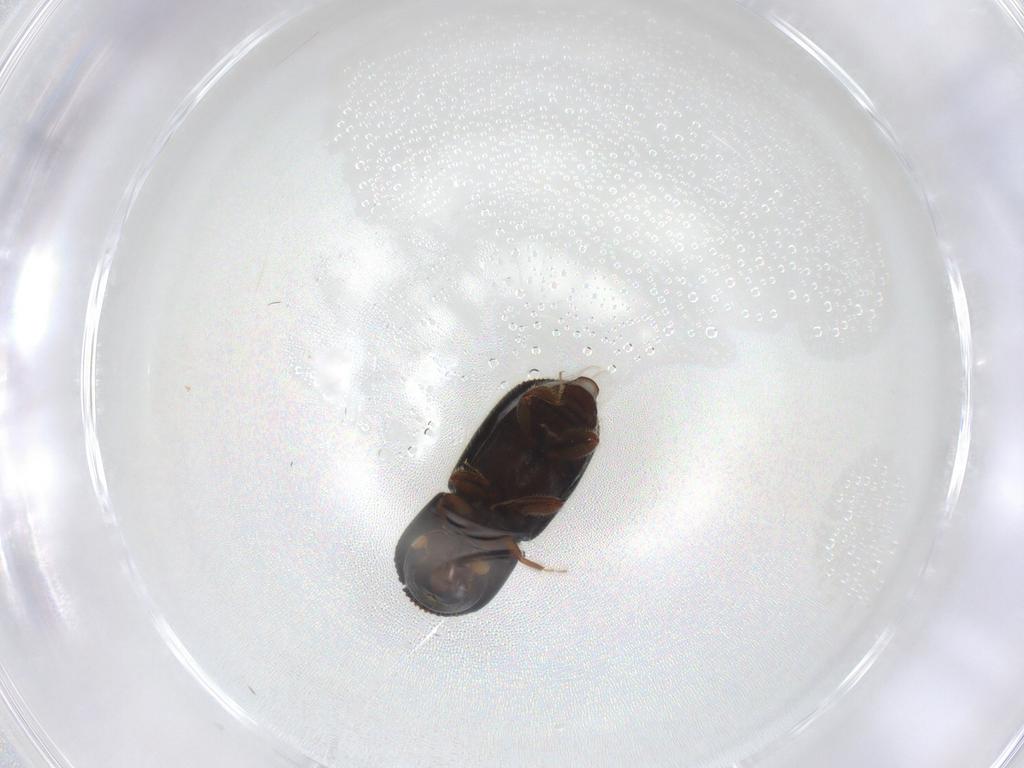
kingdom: Animalia
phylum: Arthropoda
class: Insecta
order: Coleoptera
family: Curculionidae
